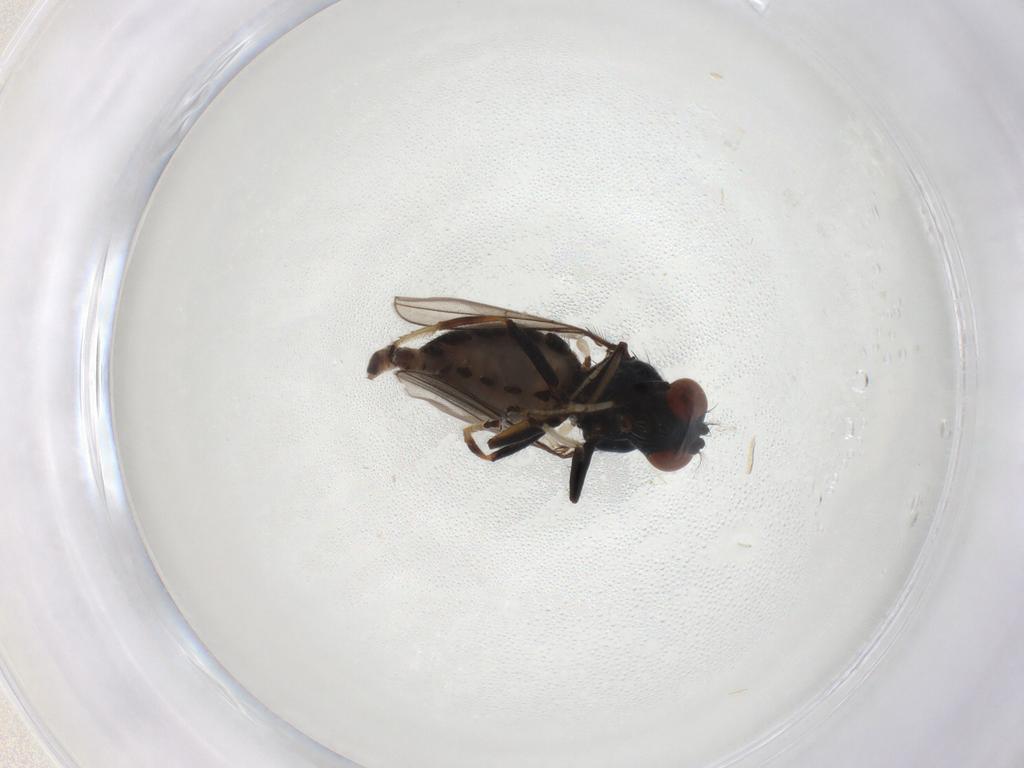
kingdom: Animalia
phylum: Arthropoda
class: Insecta
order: Diptera
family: Ephydridae
